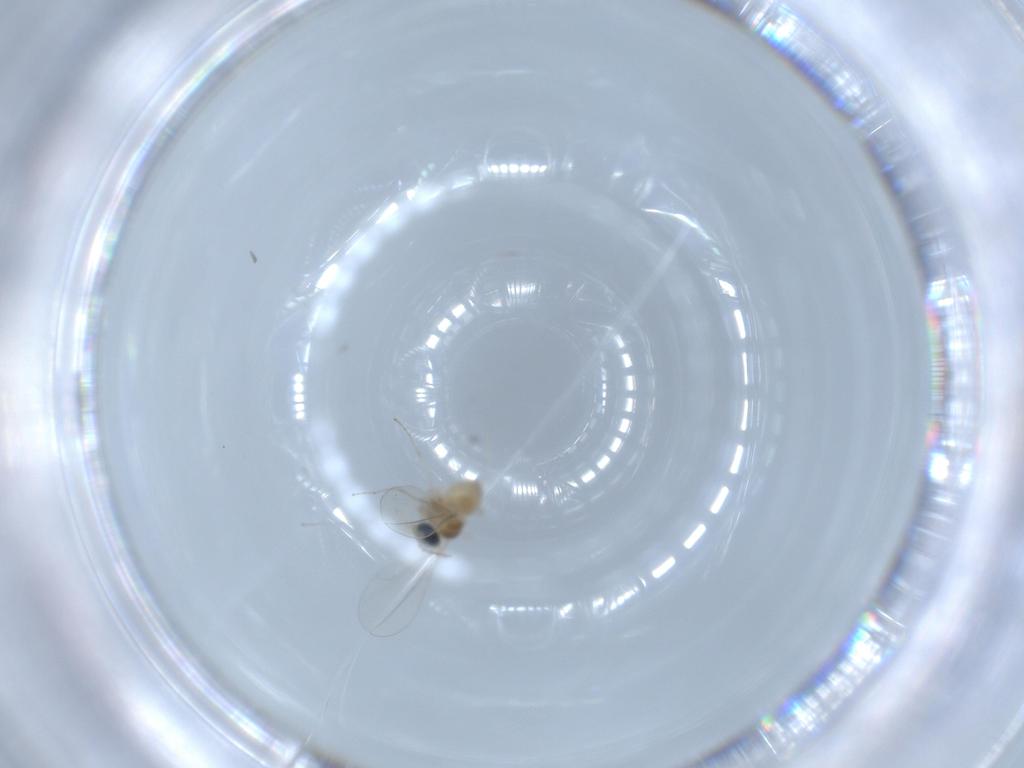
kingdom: Animalia
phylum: Arthropoda
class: Insecta
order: Diptera
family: Cecidomyiidae
